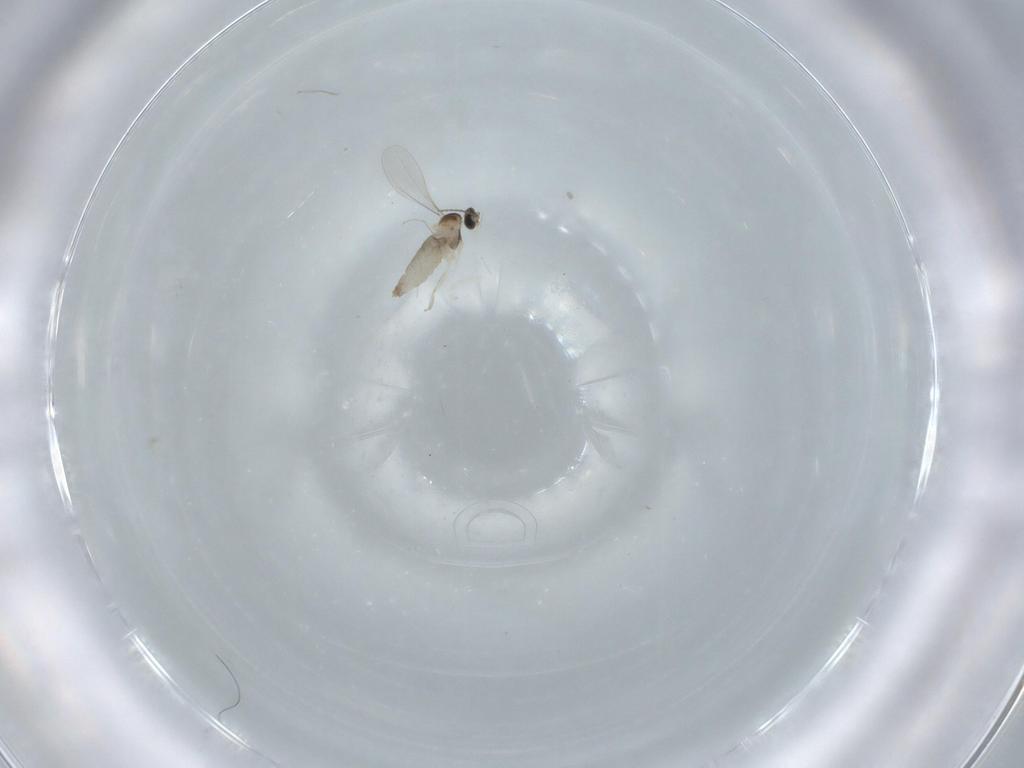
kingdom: Animalia
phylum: Arthropoda
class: Insecta
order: Diptera
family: Cecidomyiidae
